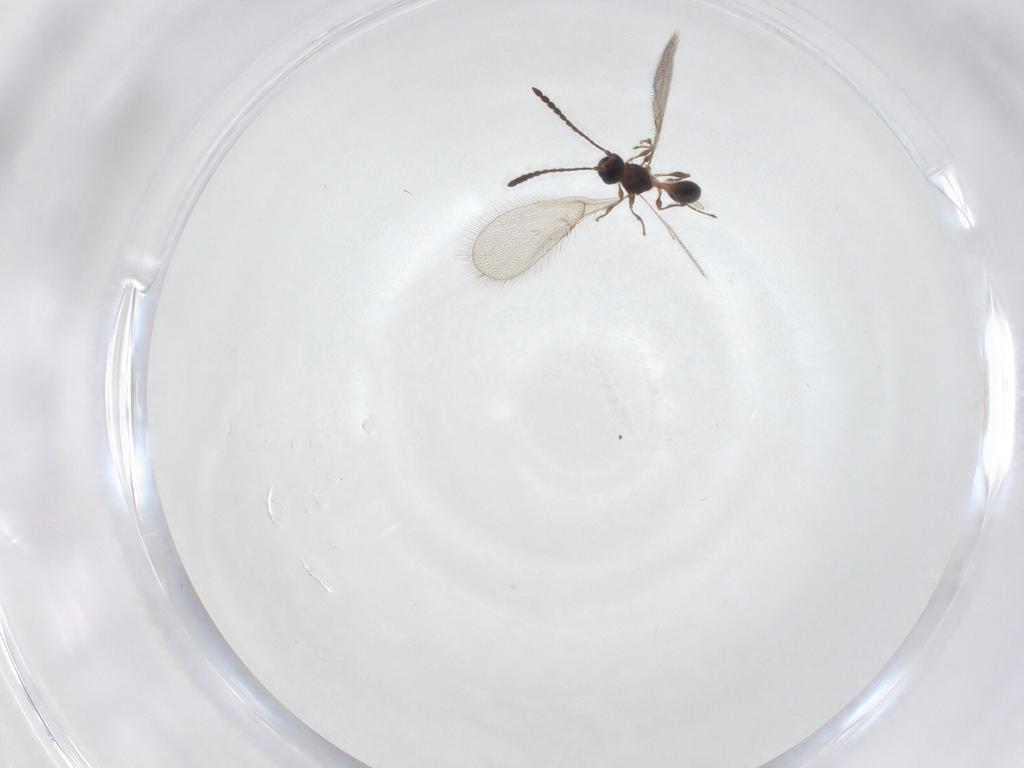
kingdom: Animalia
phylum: Arthropoda
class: Insecta
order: Hymenoptera
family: Diapriidae
